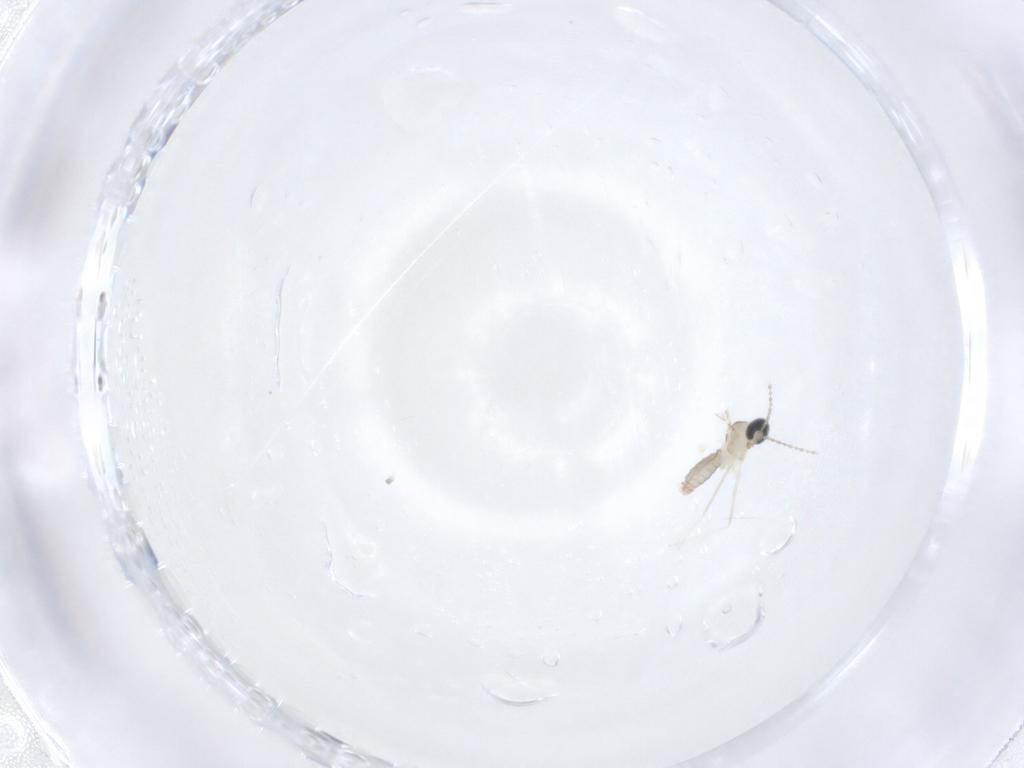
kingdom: Animalia
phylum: Arthropoda
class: Insecta
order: Diptera
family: Cecidomyiidae
